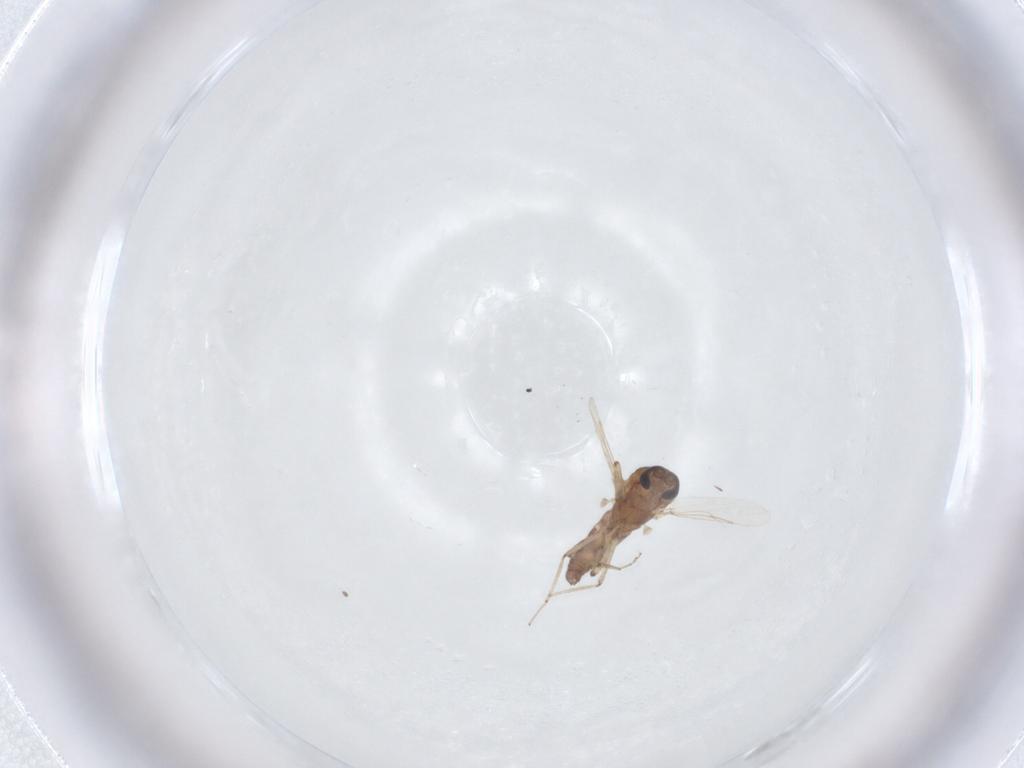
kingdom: Animalia
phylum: Arthropoda
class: Insecta
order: Diptera
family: Ceratopogonidae
